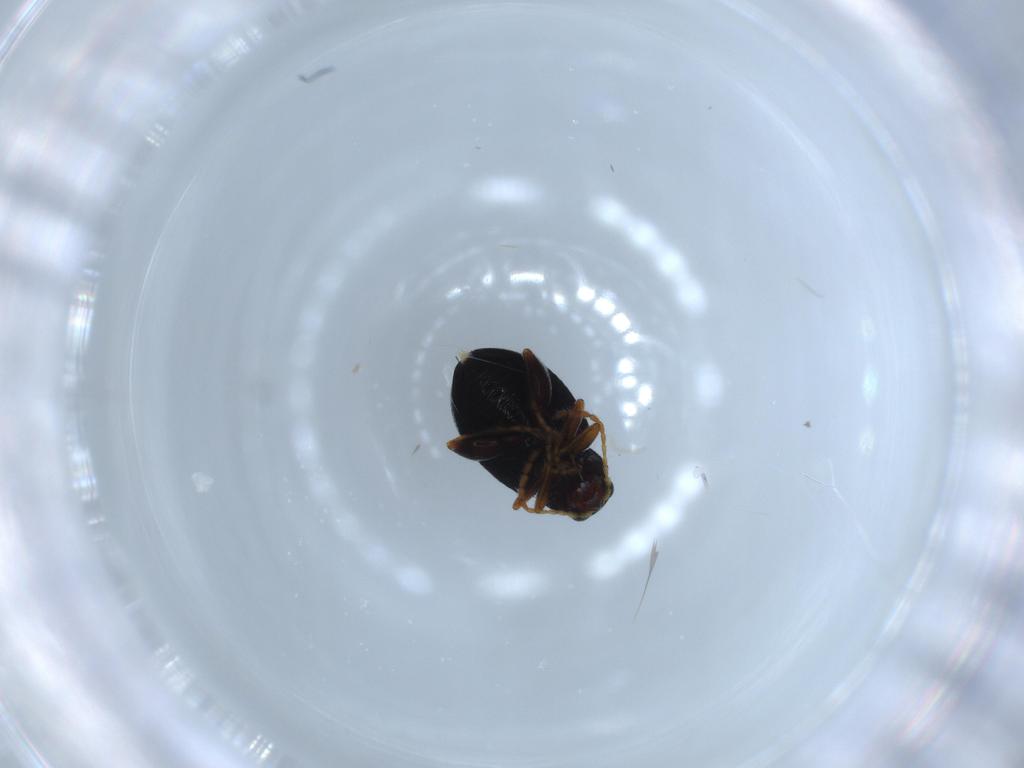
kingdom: Animalia
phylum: Arthropoda
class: Insecta
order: Coleoptera
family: Chrysomelidae
